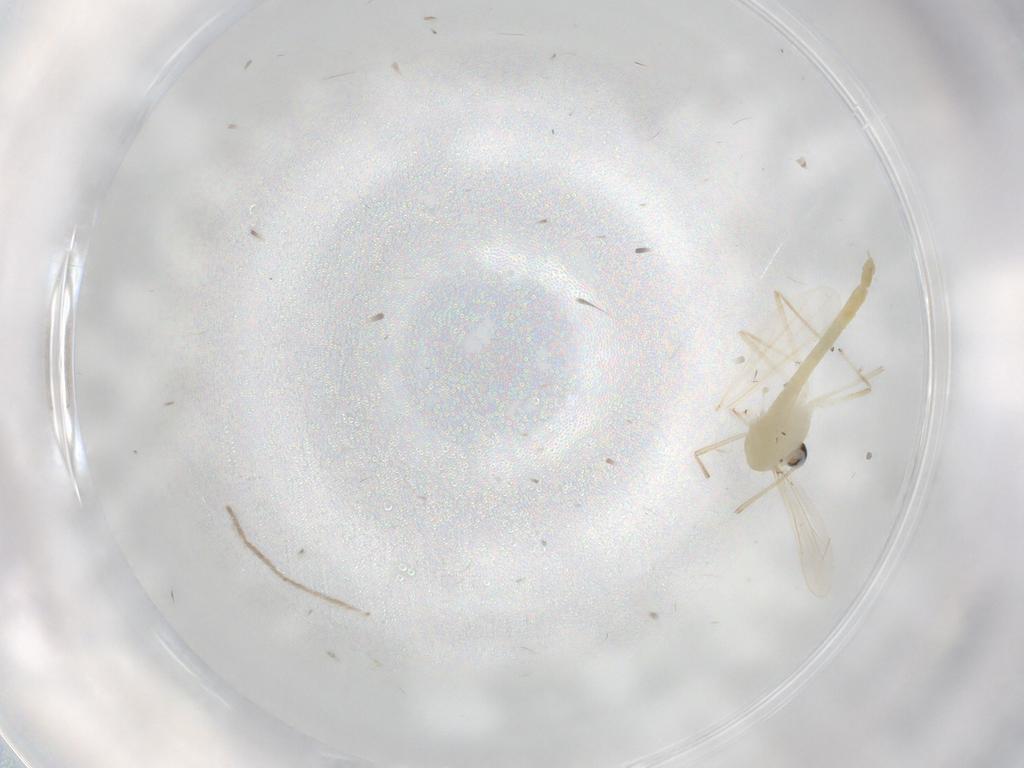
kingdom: Animalia
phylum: Arthropoda
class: Insecta
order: Diptera
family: Chironomidae
